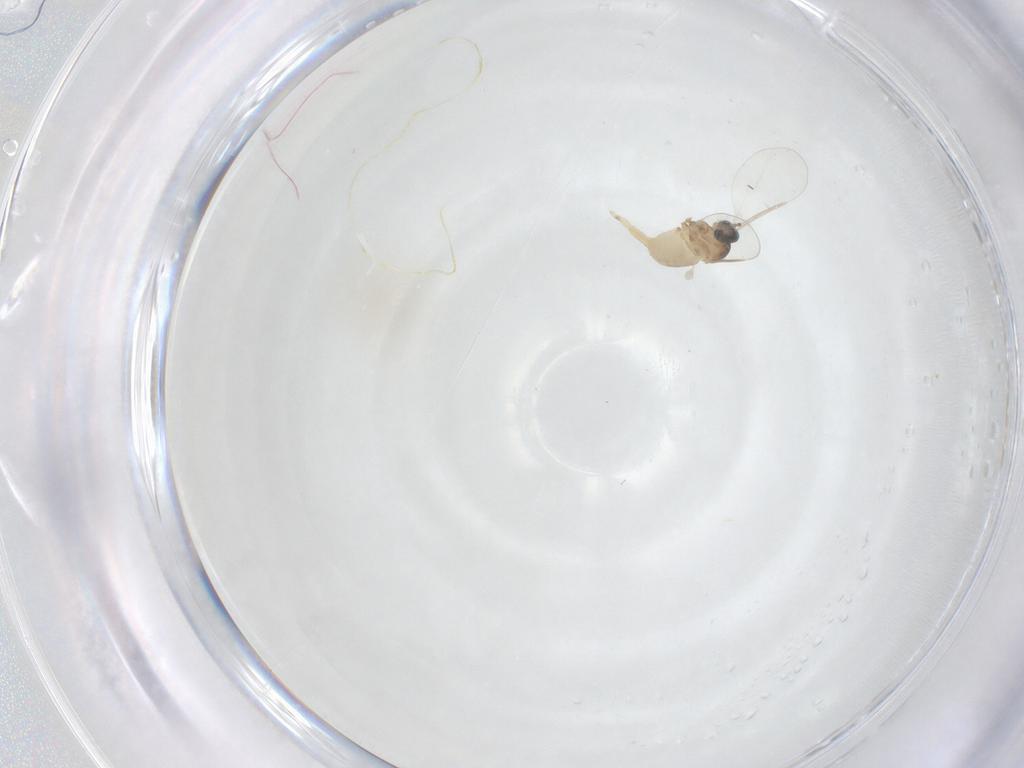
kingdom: Animalia
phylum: Arthropoda
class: Insecta
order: Diptera
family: Cecidomyiidae
